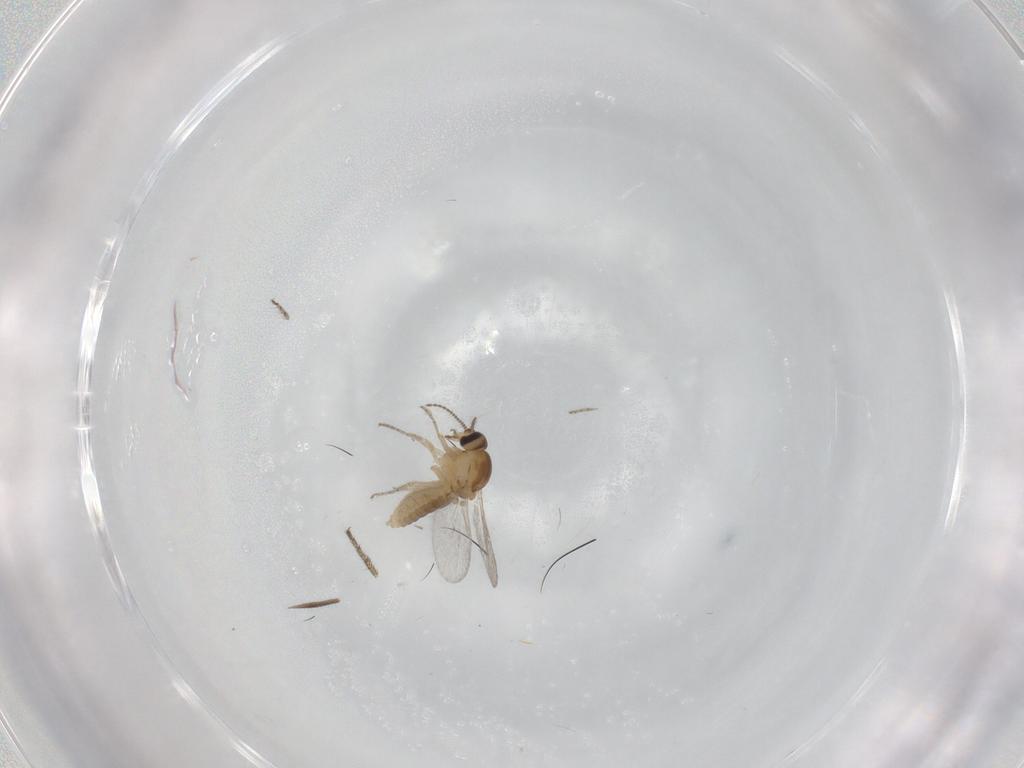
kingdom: Animalia
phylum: Arthropoda
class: Insecta
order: Diptera
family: Ceratopogonidae
